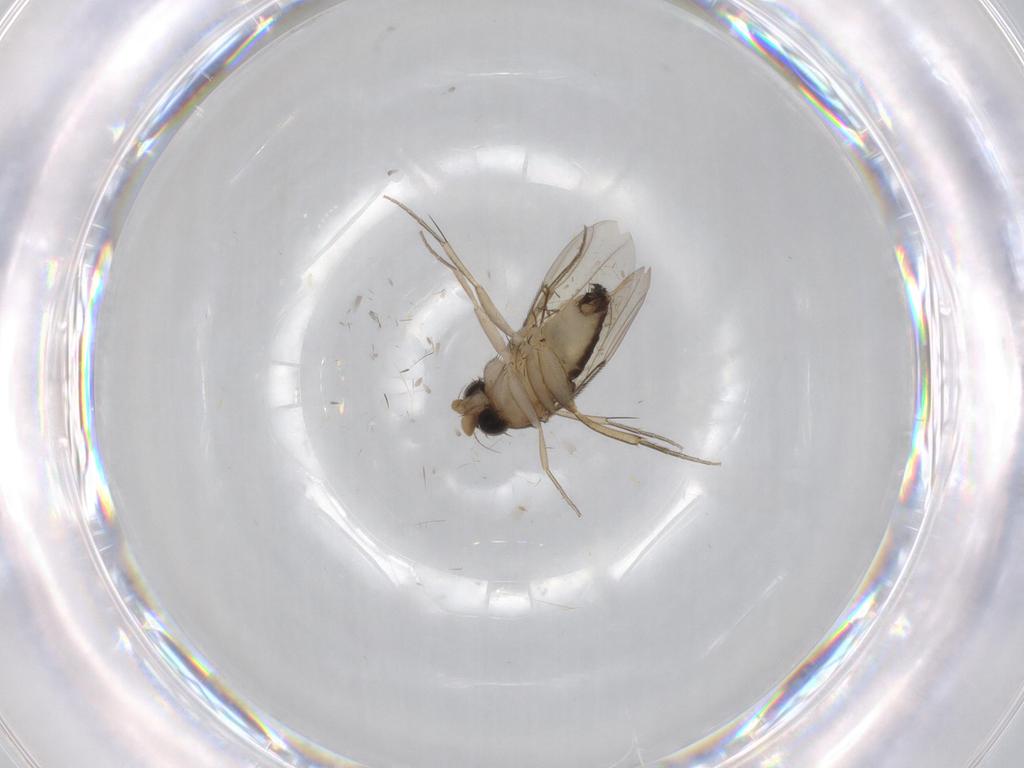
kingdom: Animalia
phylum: Arthropoda
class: Insecta
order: Diptera
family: Phoridae
